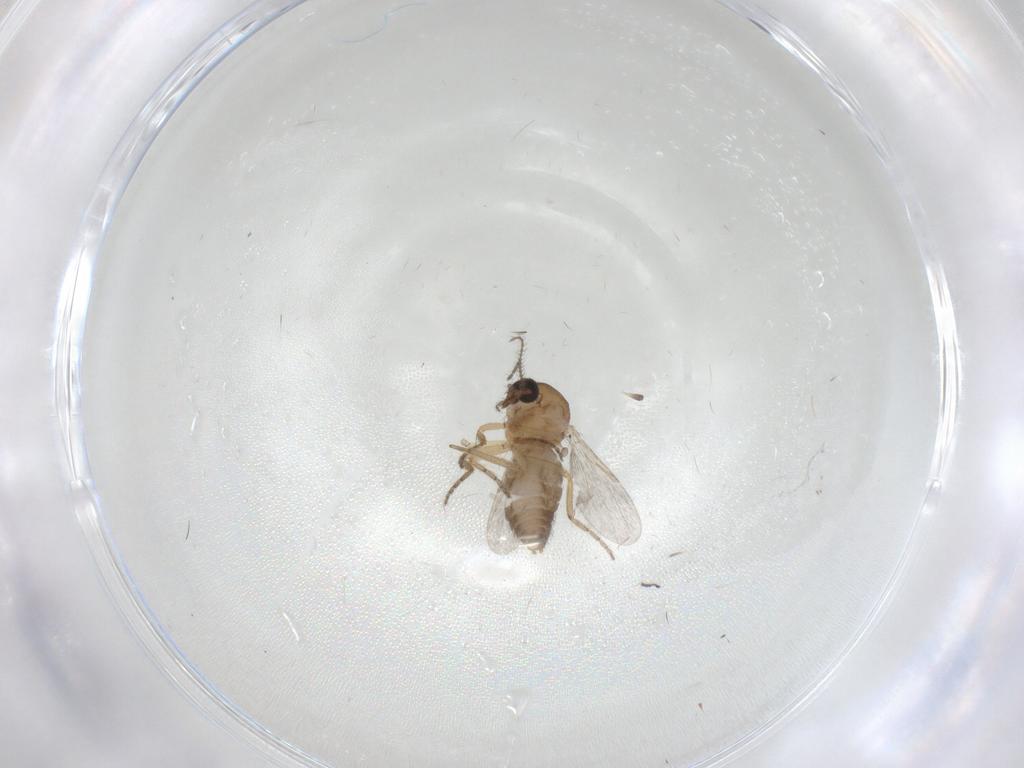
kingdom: Animalia
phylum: Arthropoda
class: Insecta
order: Diptera
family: Ceratopogonidae
